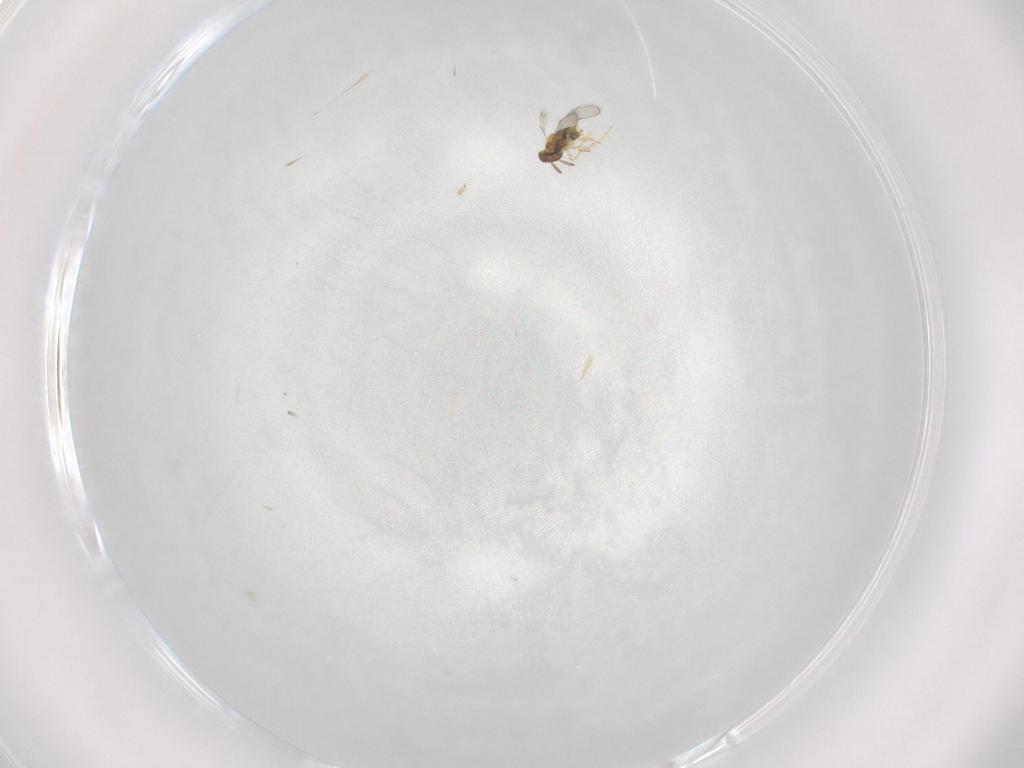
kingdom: Animalia
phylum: Arthropoda
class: Insecta
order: Hymenoptera
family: Aphelinidae
